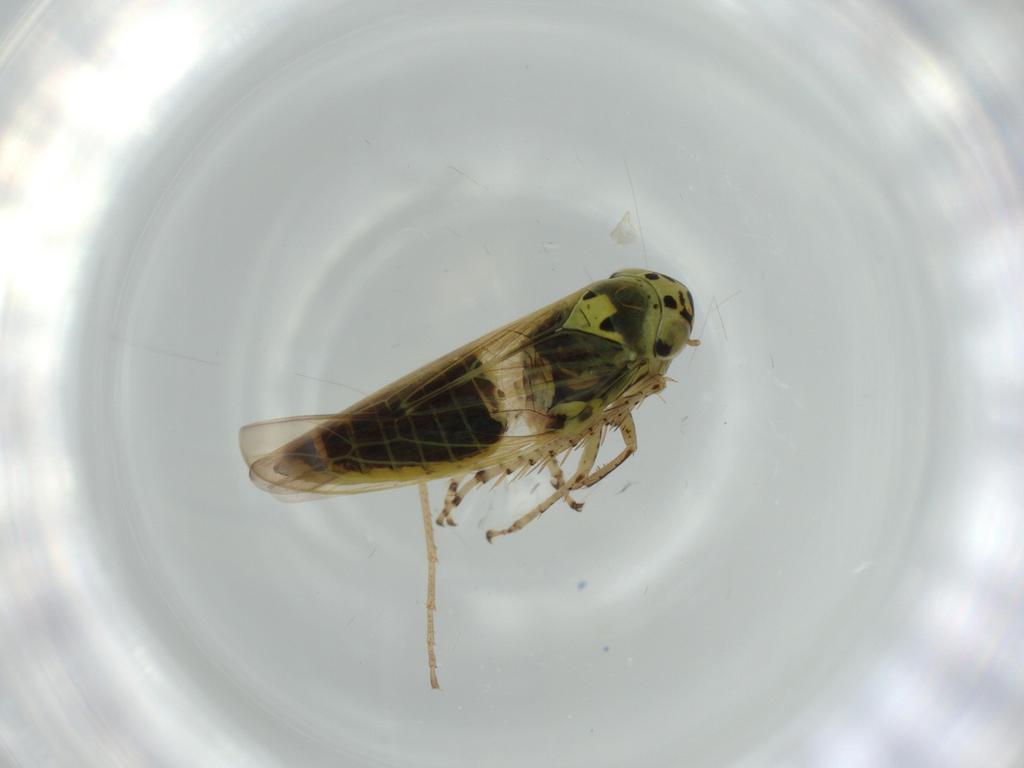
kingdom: Animalia
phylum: Arthropoda
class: Insecta
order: Hemiptera
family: Cicadellidae
